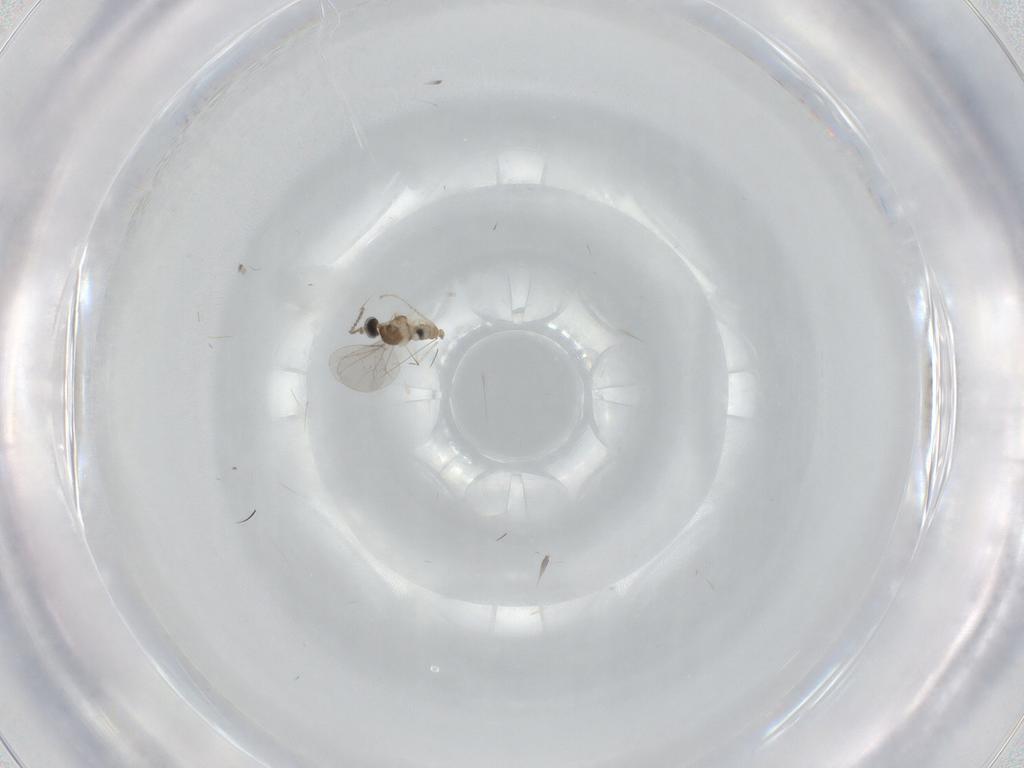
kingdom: Animalia
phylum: Arthropoda
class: Insecta
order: Diptera
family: Cecidomyiidae
